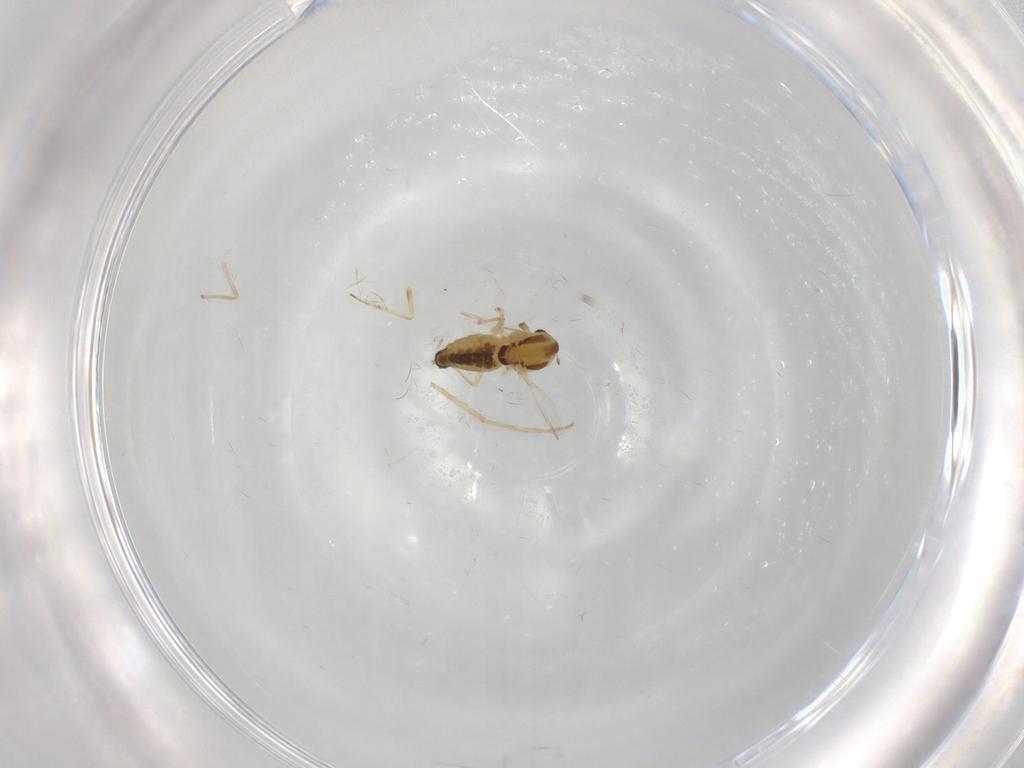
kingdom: Animalia
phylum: Arthropoda
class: Insecta
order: Diptera
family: Chironomidae
